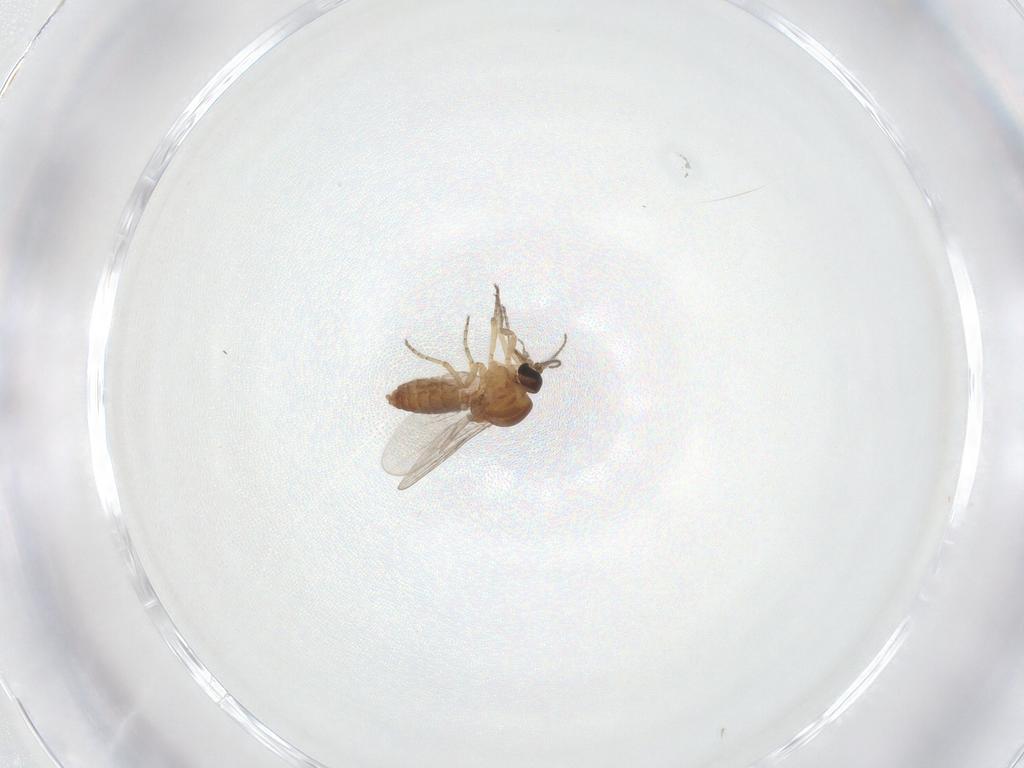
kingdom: Animalia
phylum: Arthropoda
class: Insecta
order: Diptera
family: Ceratopogonidae
